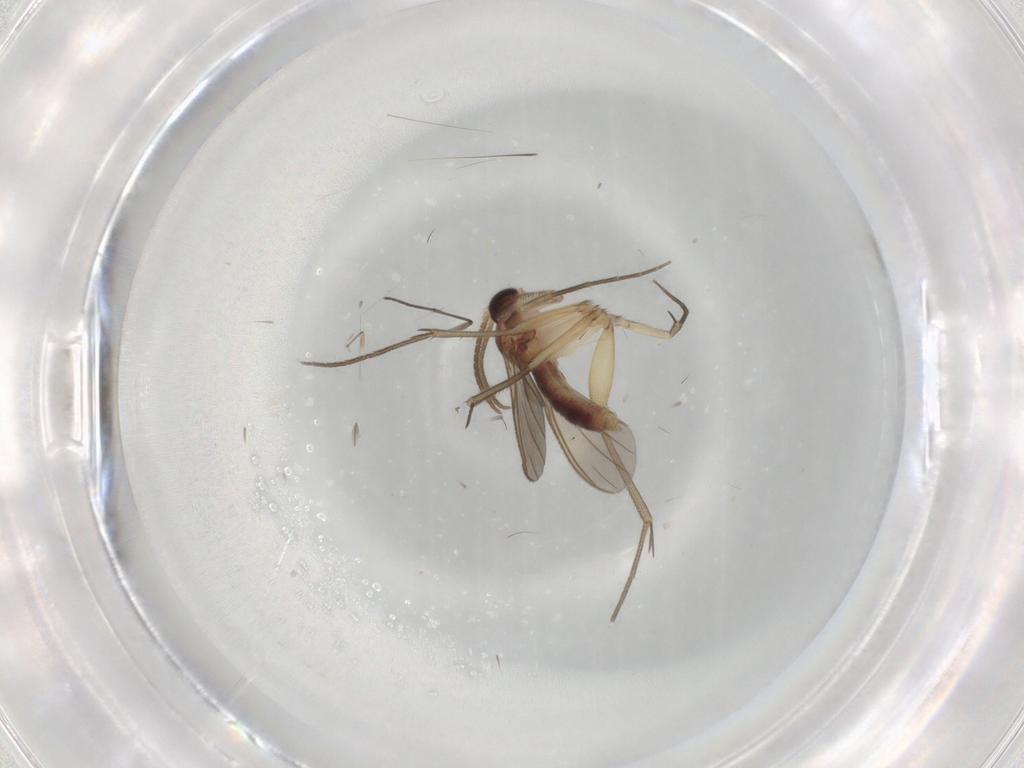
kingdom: Animalia
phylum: Arthropoda
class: Insecta
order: Diptera
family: Mycetophilidae
